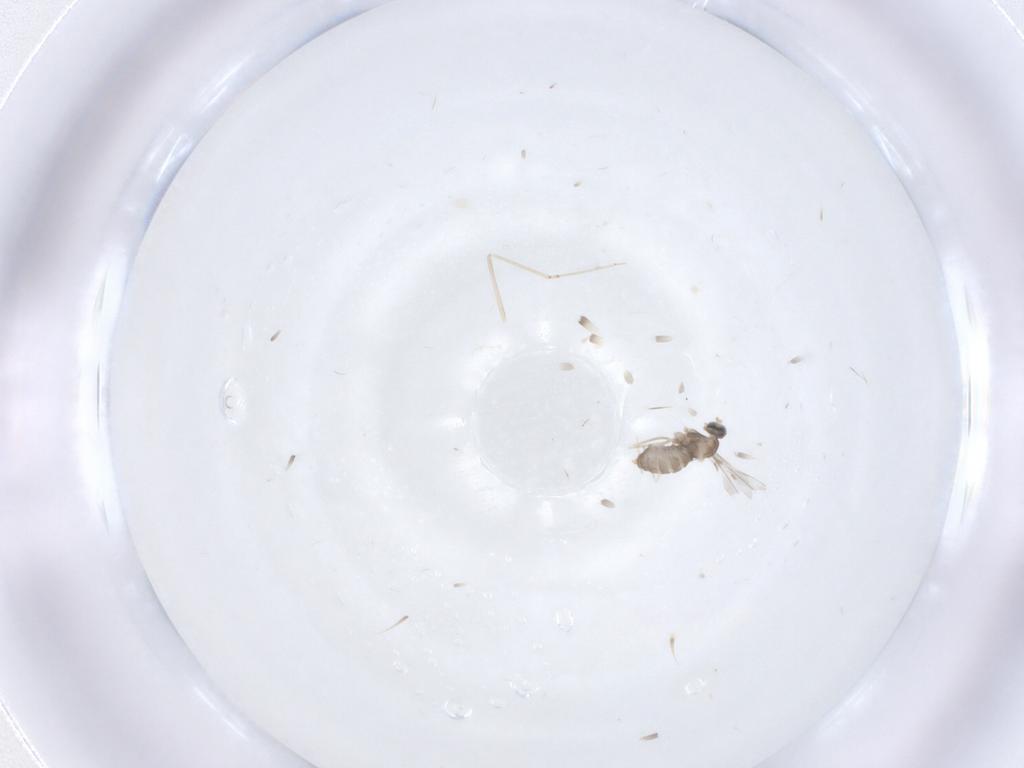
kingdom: Animalia
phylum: Arthropoda
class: Insecta
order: Diptera
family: Cecidomyiidae
